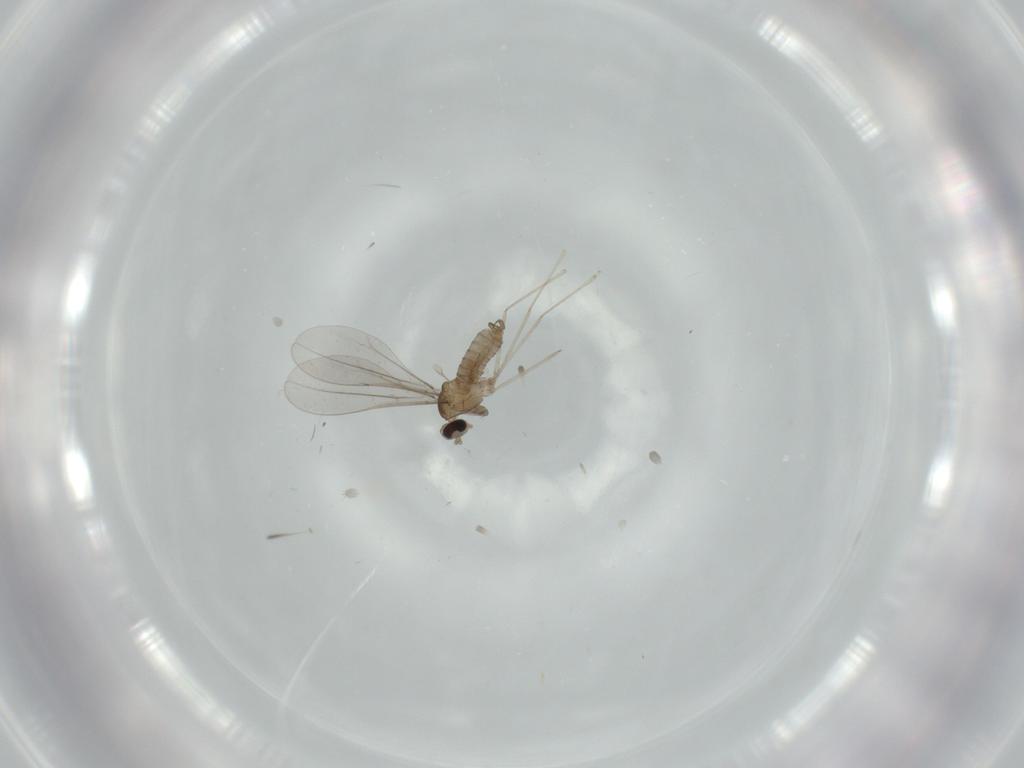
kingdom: Animalia
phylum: Arthropoda
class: Insecta
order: Diptera
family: Cecidomyiidae
